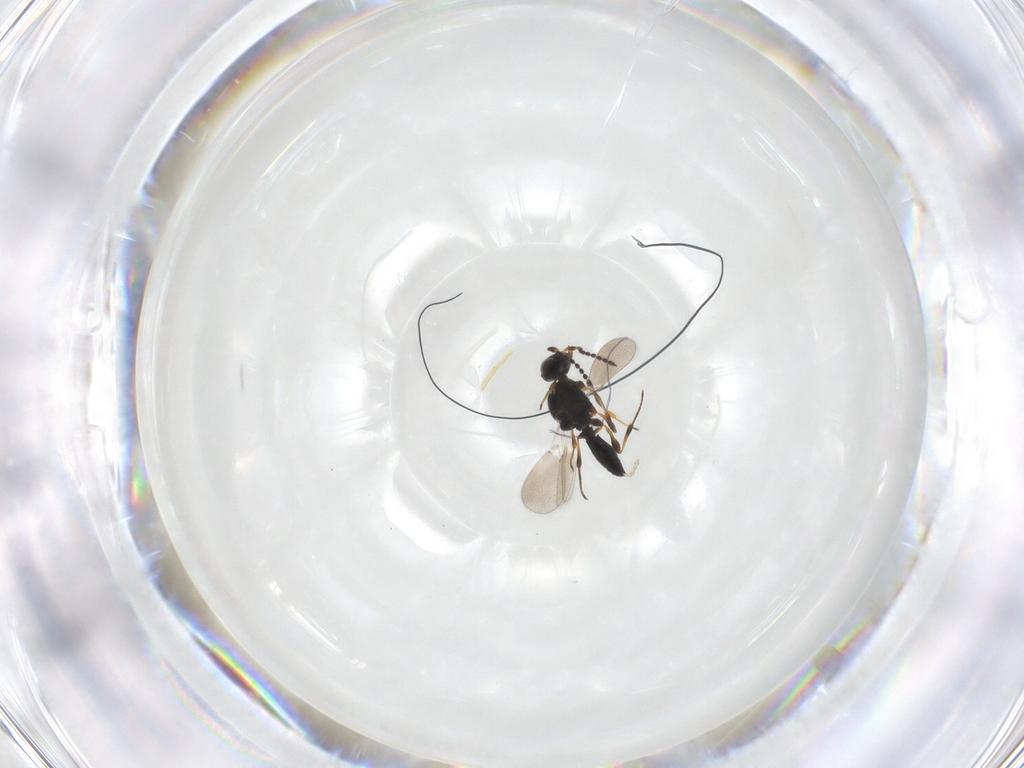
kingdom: Animalia
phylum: Arthropoda
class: Insecta
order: Hymenoptera
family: Platygastridae
